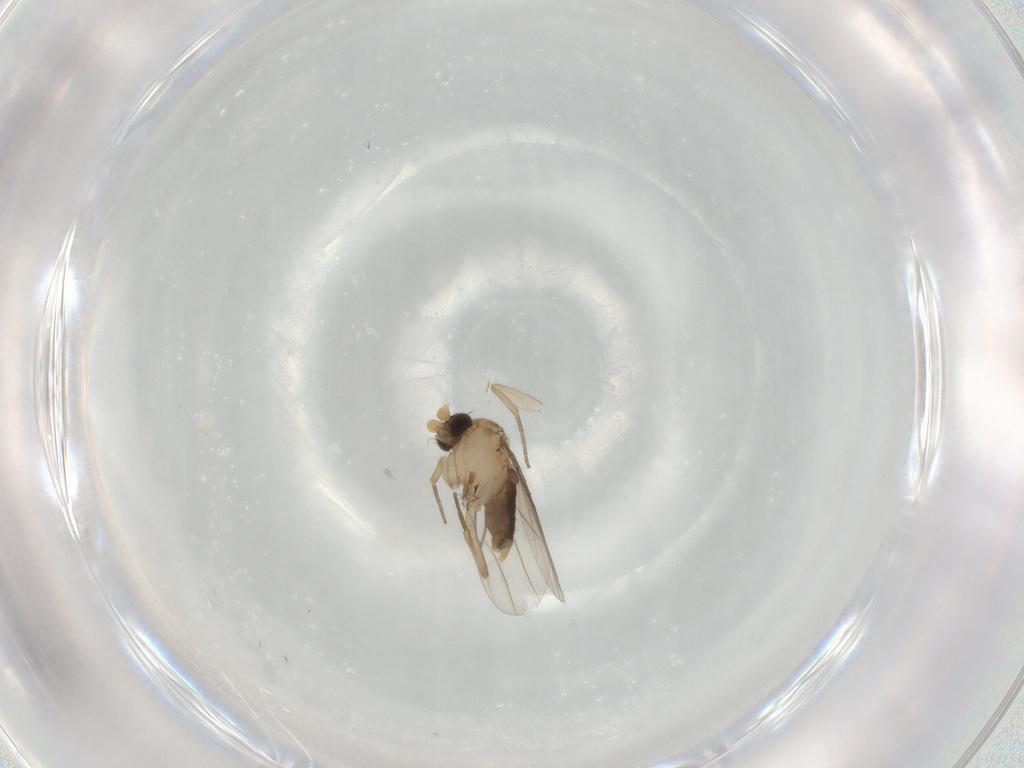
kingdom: Animalia
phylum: Arthropoda
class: Insecta
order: Diptera
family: Phoridae
